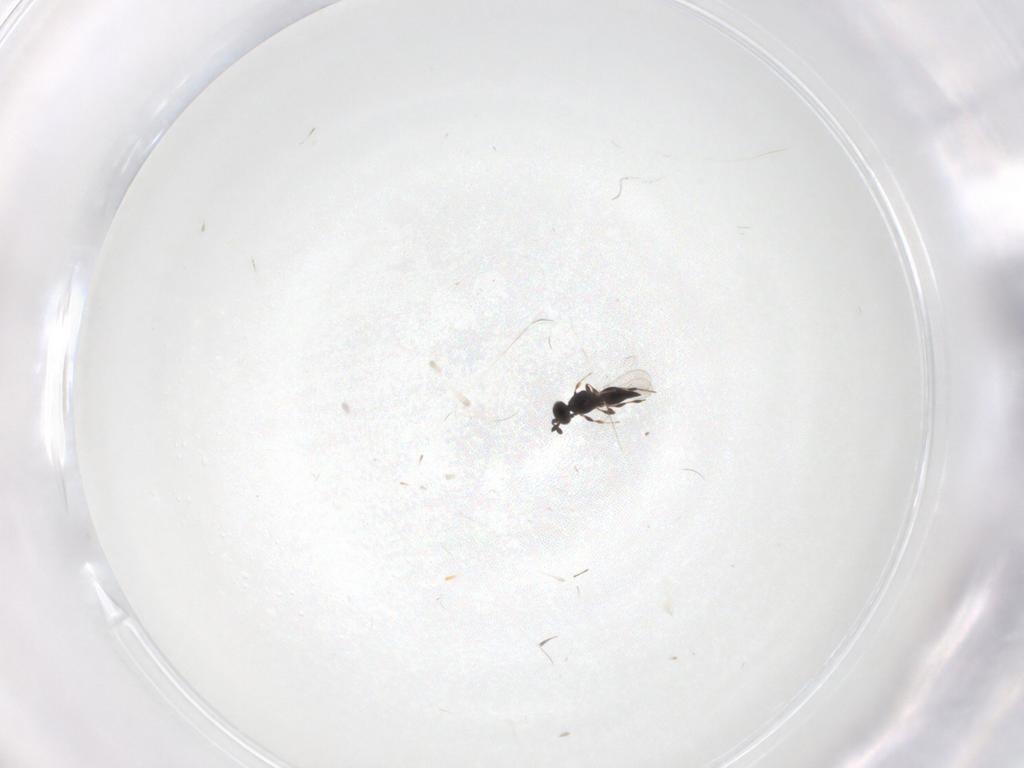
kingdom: Animalia
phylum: Arthropoda
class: Insecta
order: Hymenoptera
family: Platygastridae
